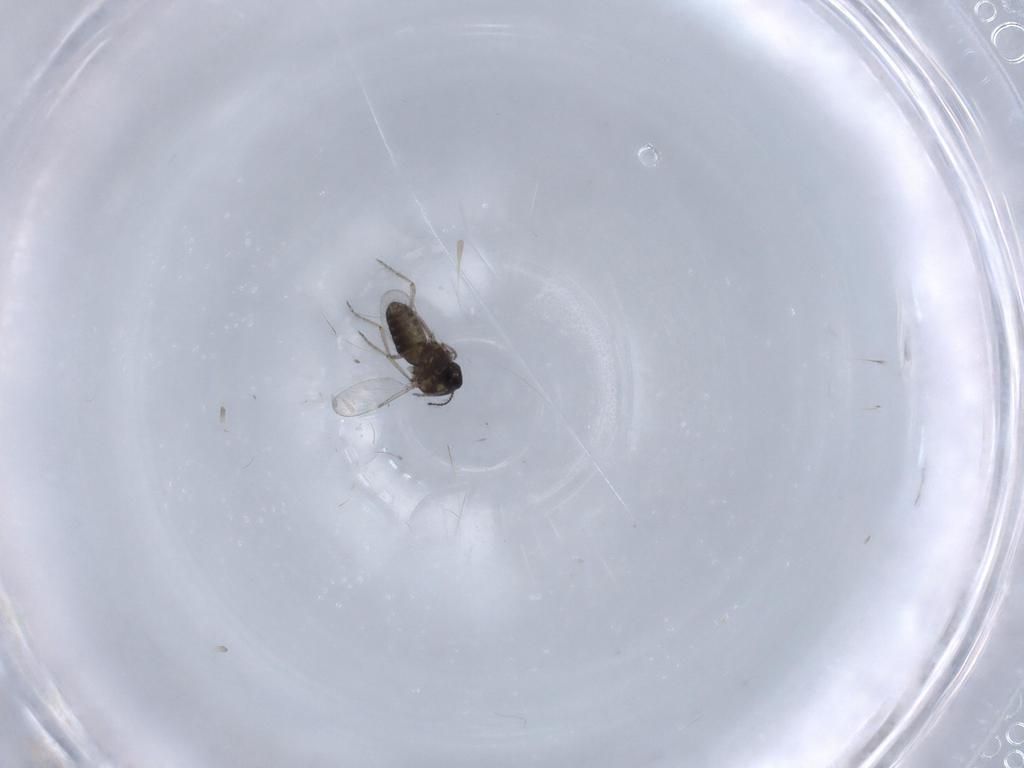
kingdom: Animalia
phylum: Arthropoda
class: Insecta
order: Diptera
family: Ceratopogonidae
